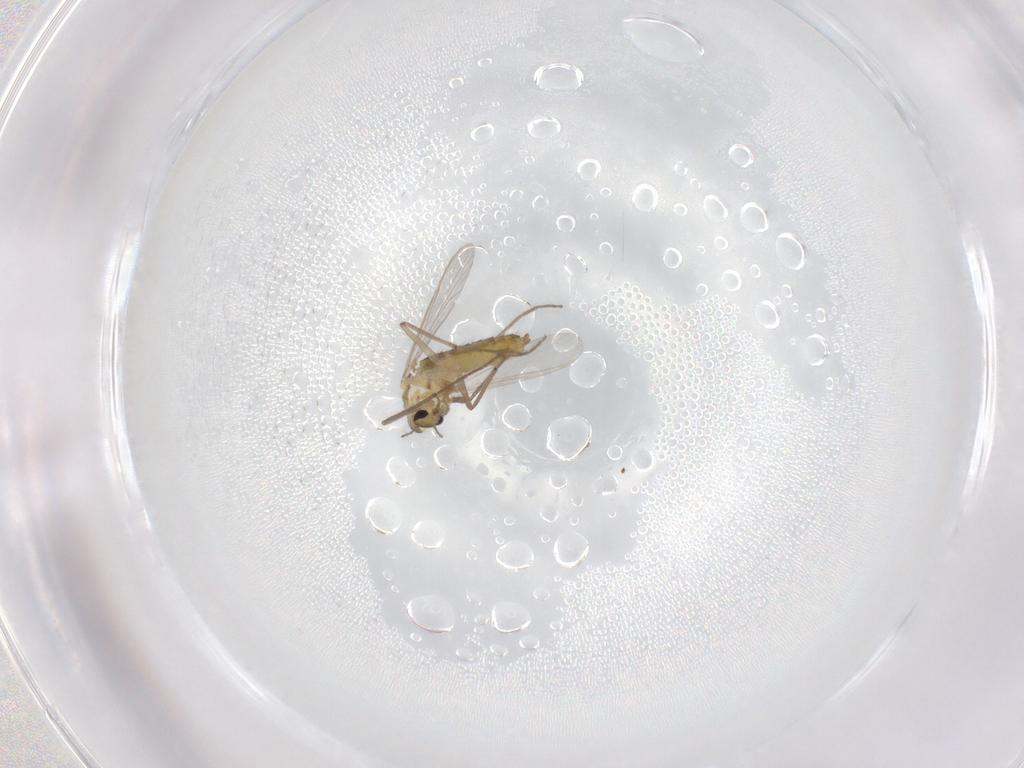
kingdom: Animalia
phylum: Arthropoda
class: Insecta
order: Diptera
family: Chironomidae
